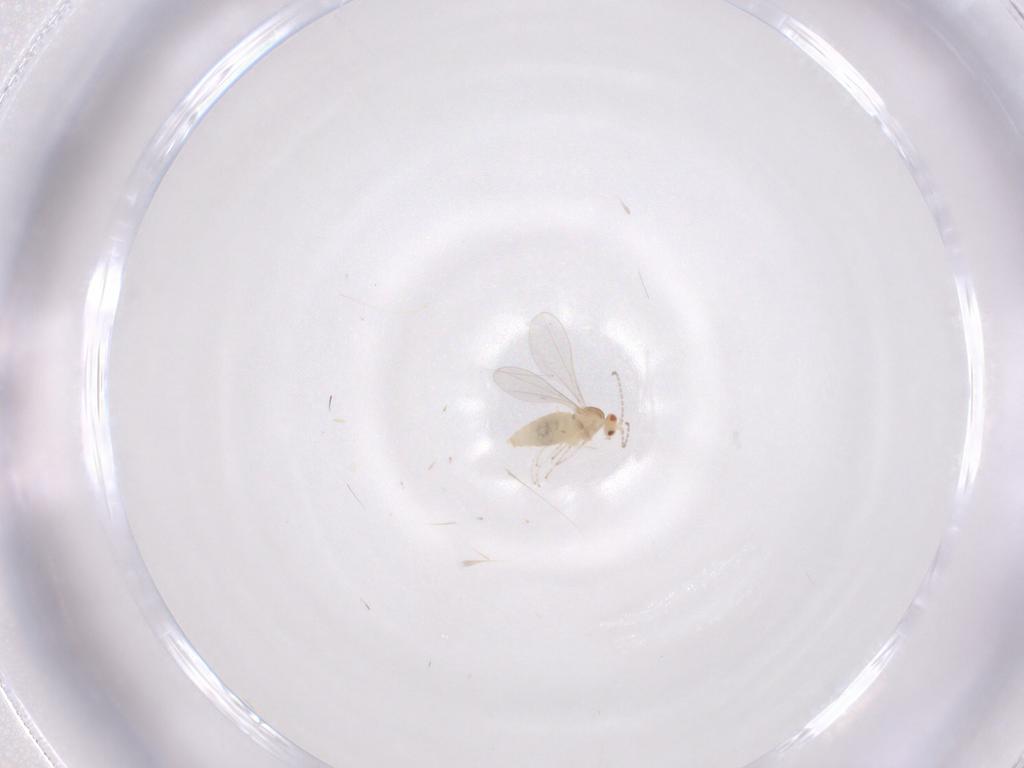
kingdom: Animalia
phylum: Arthropoda
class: Insecta
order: Diptera
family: Cecidomyiidae
